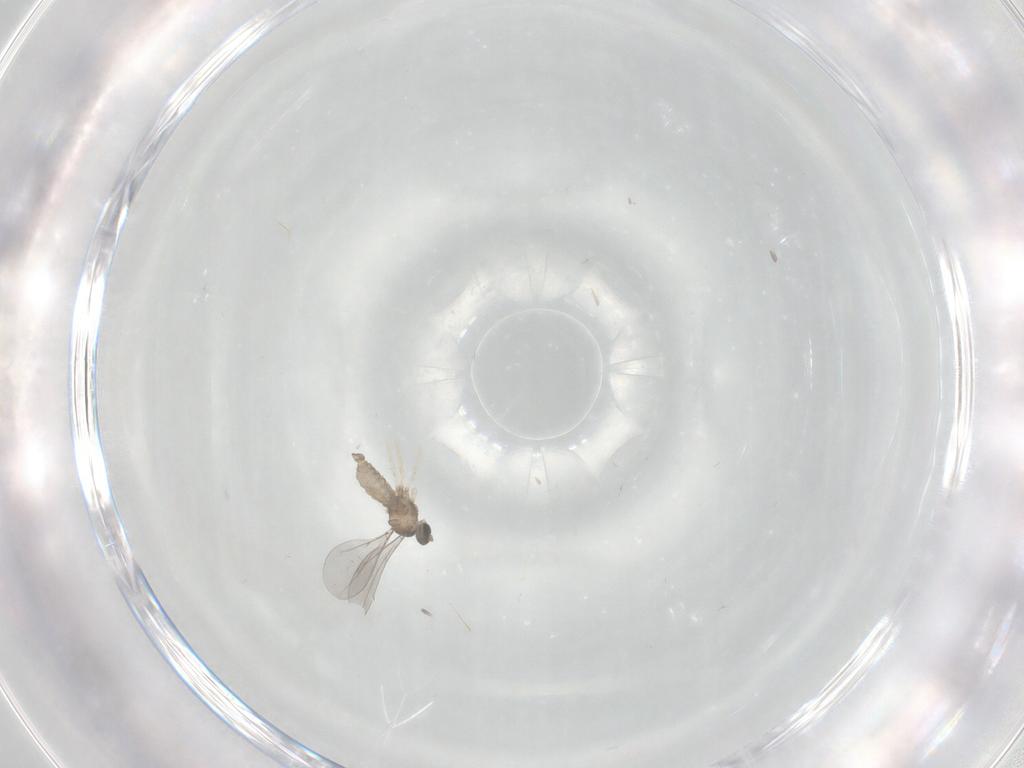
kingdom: Animalia
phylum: Arthropoda
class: Insecta
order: Diptera
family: Phoridae
